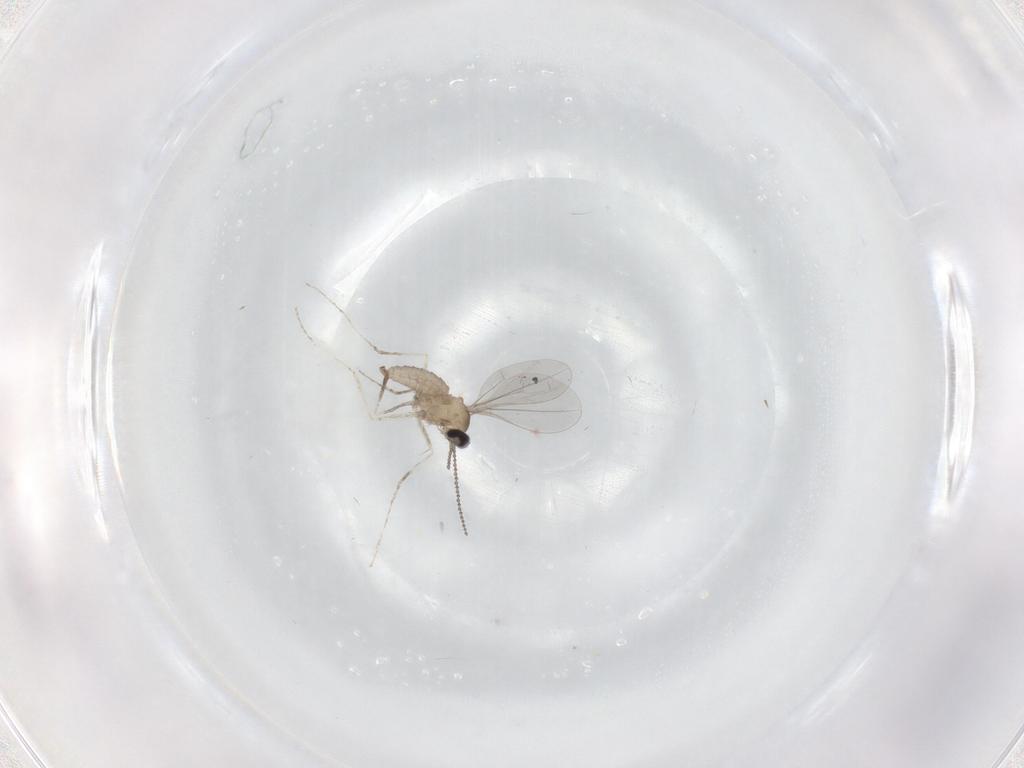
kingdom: Animalia
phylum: Arthropoda
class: Insecta
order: Diptera
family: Cecidomyiidae
